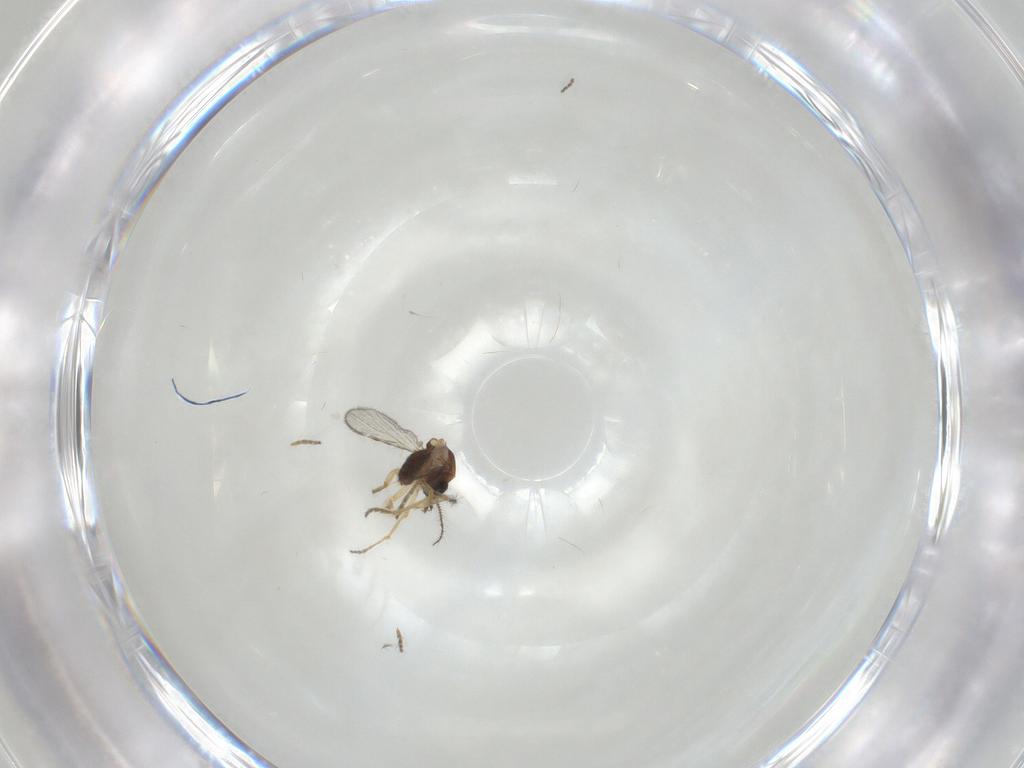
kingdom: Animalia
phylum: Arthropoda
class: Insecta
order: Diptera
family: Ceratopogonidae
